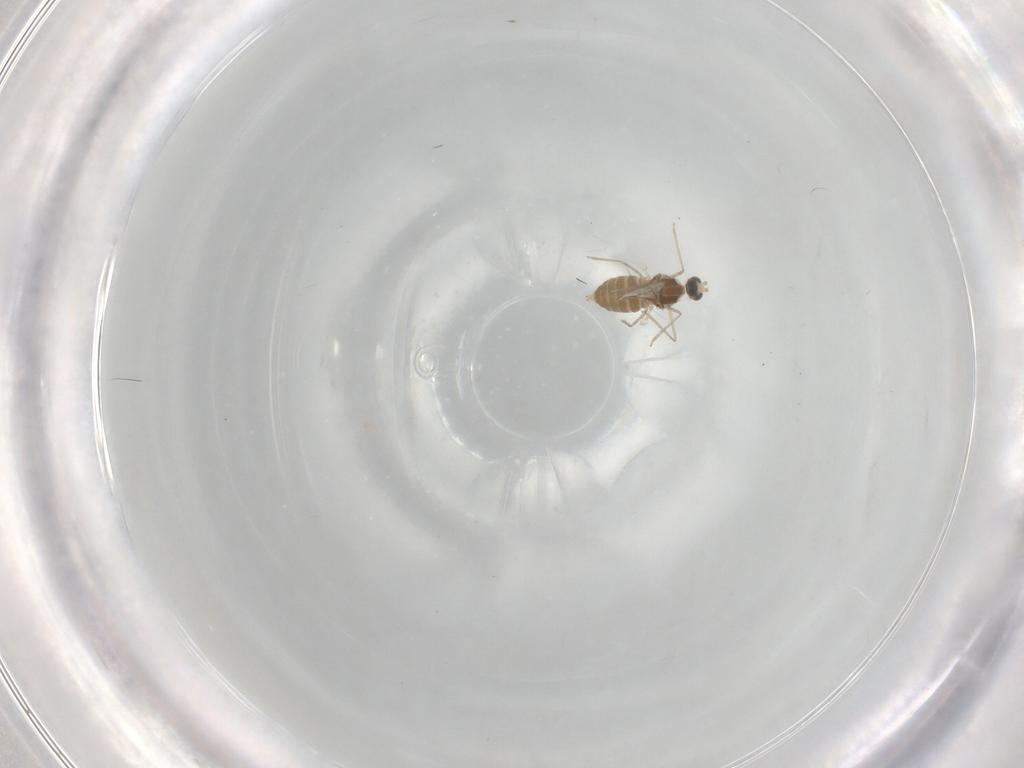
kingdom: Animalia
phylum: Arthropoda
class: Insecta
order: Diptera
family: Cecidomyiidae
